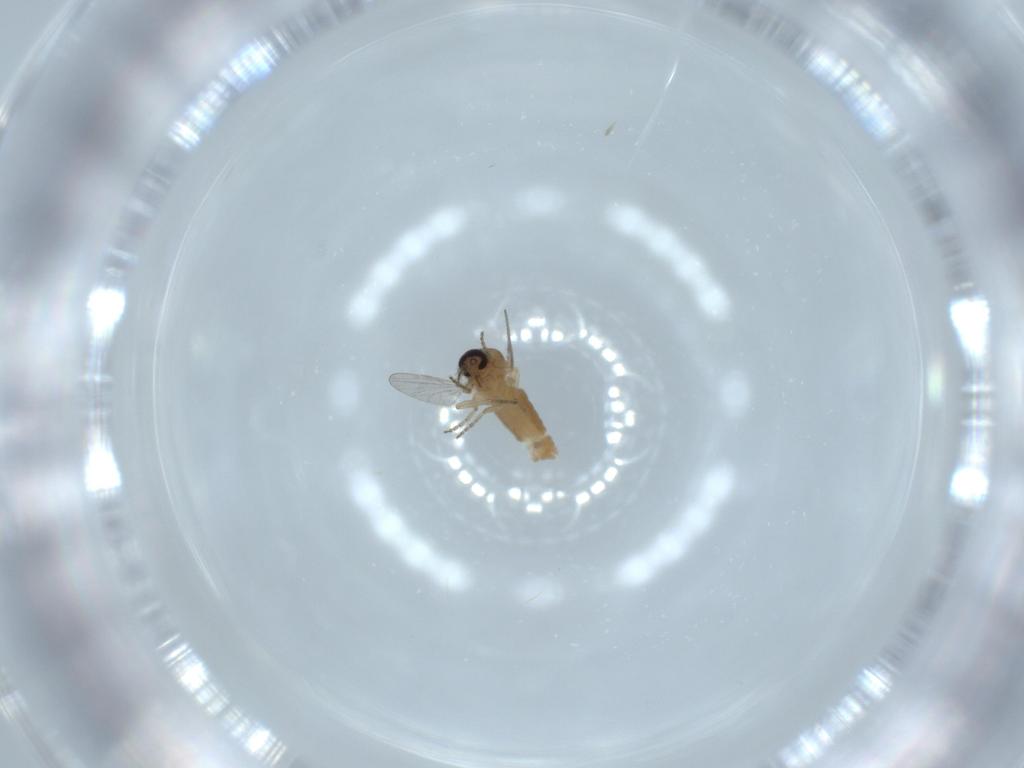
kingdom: Animalia
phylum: Arthropoda
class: Insecta
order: Diptera
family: Ceratopogonidae
